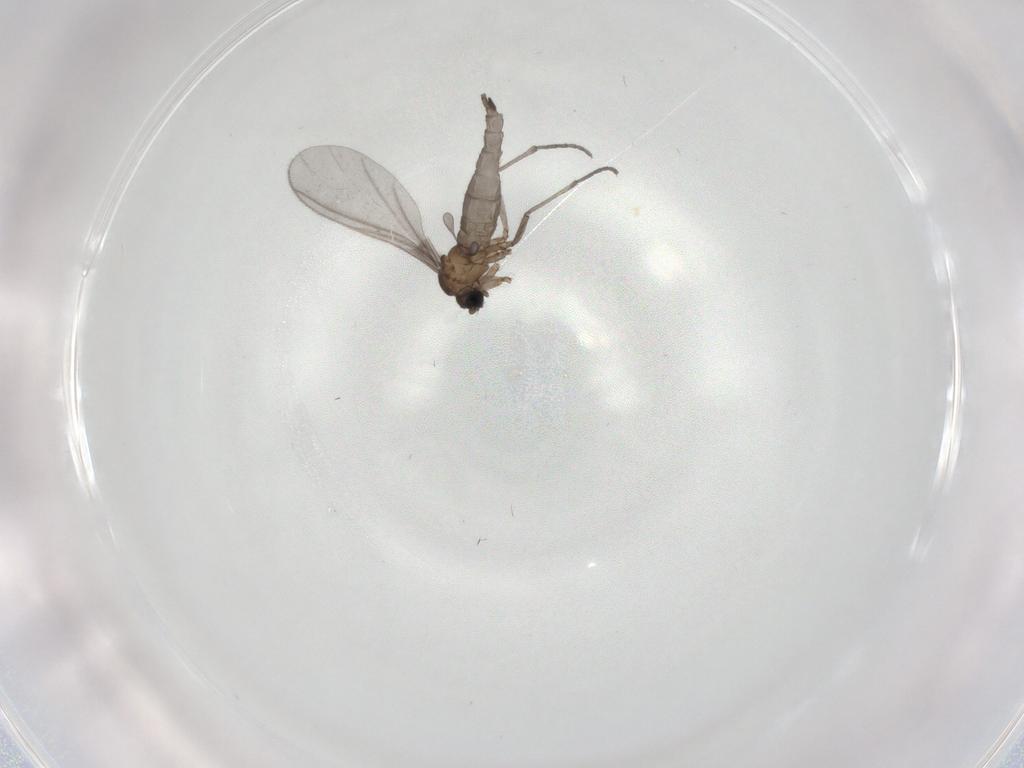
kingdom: Animalia
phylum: Arthropoda
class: Insecta
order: Diptera
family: Sciaridae
